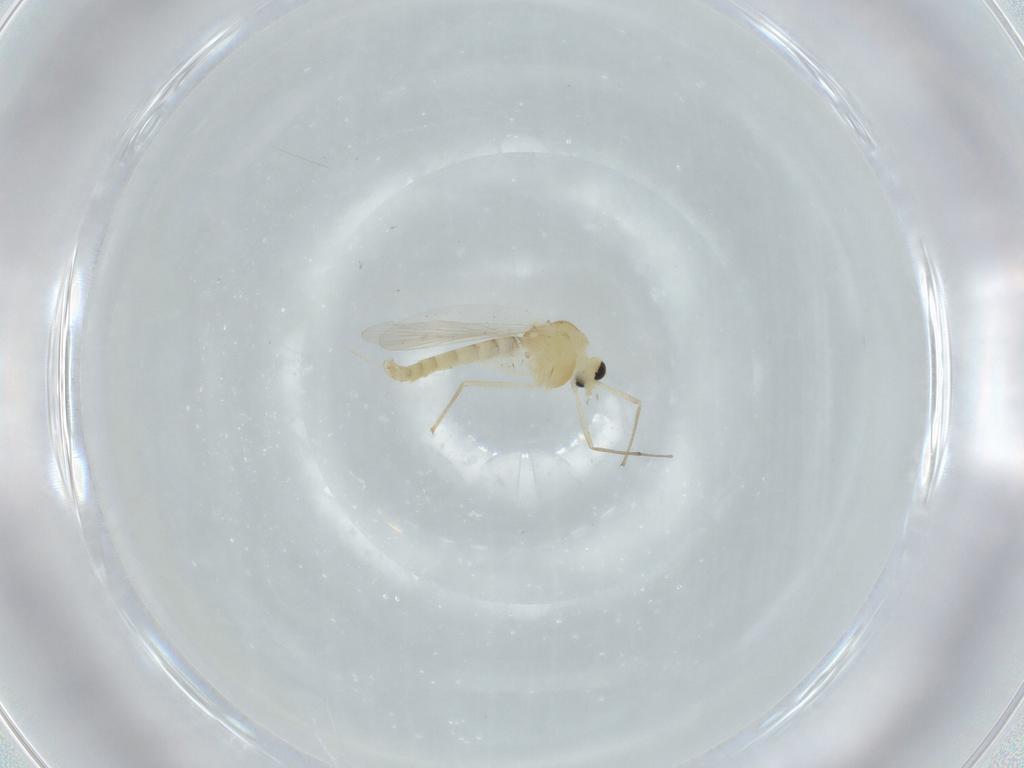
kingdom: Animalia
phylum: Arthropoda
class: Insecta
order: Diptera
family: Chironomidae
